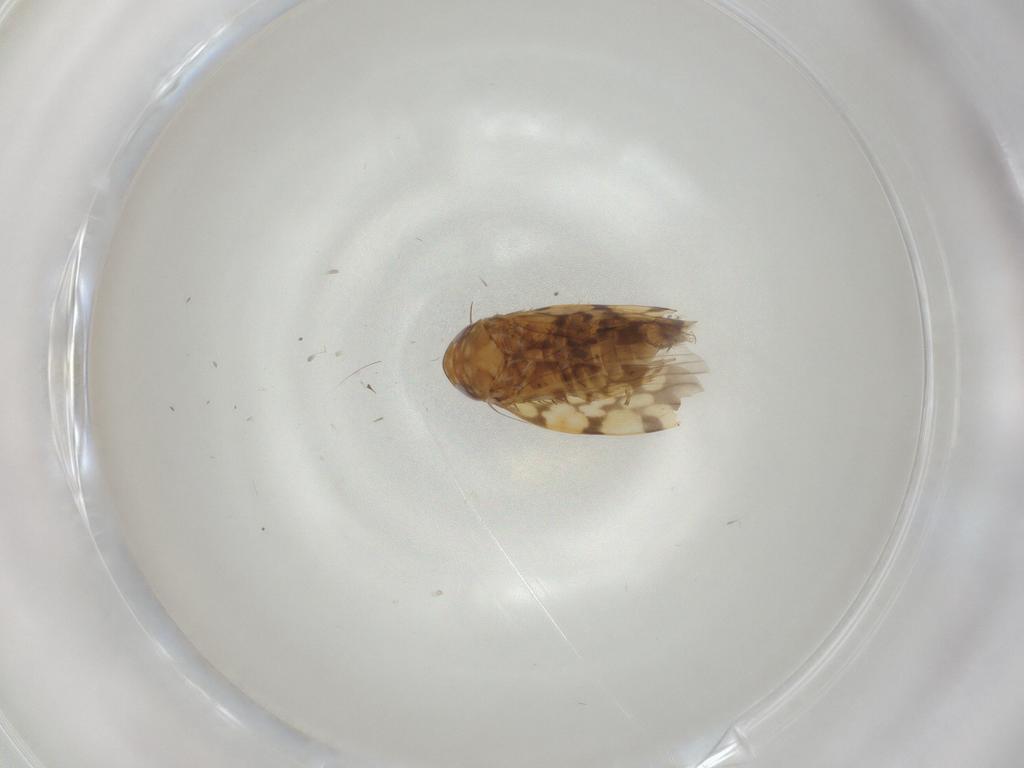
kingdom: Animalia
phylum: Arthropoda
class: Insecta
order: Hemiptera
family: Cicadellidae
